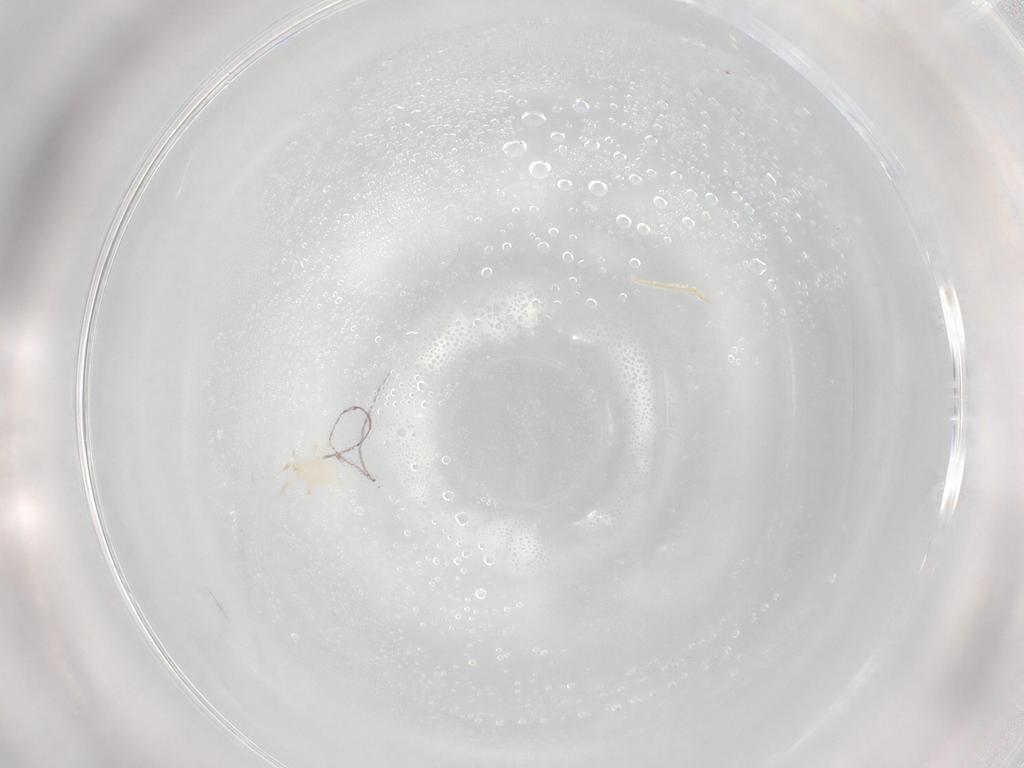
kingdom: Animalia
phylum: Arthropoda
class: Arachnida
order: Mesostigmata
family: Phytoseiidae
